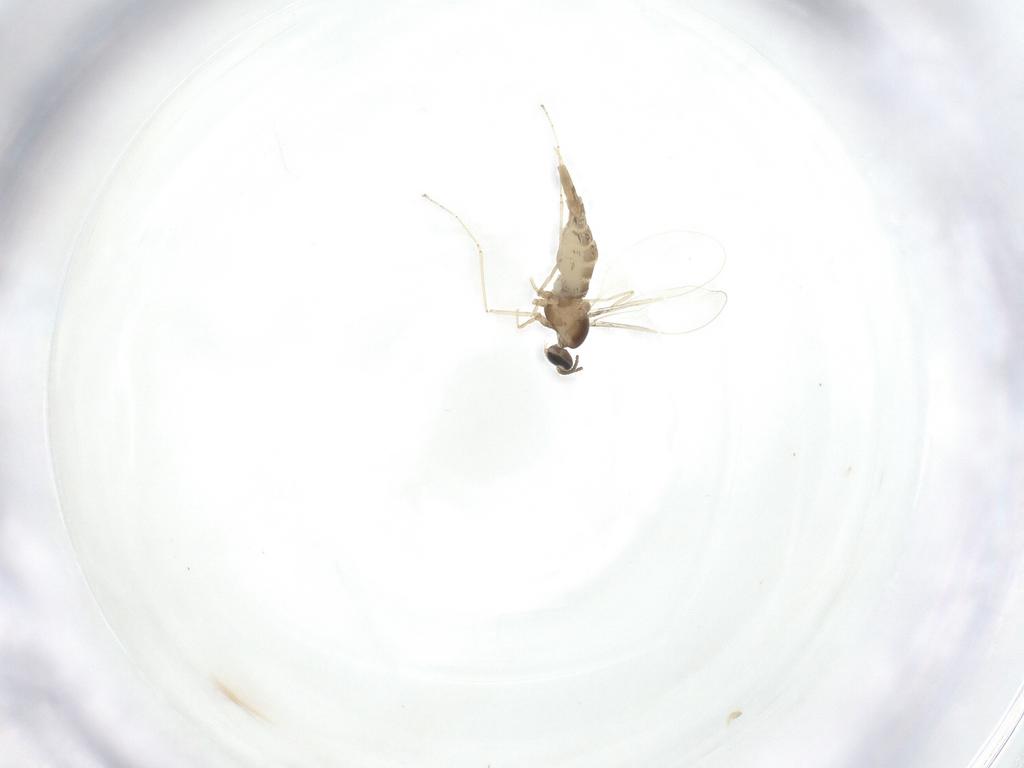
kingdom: Animalia
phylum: Arthropoda
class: Insecta
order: Diptera
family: Cecidomyiidae
